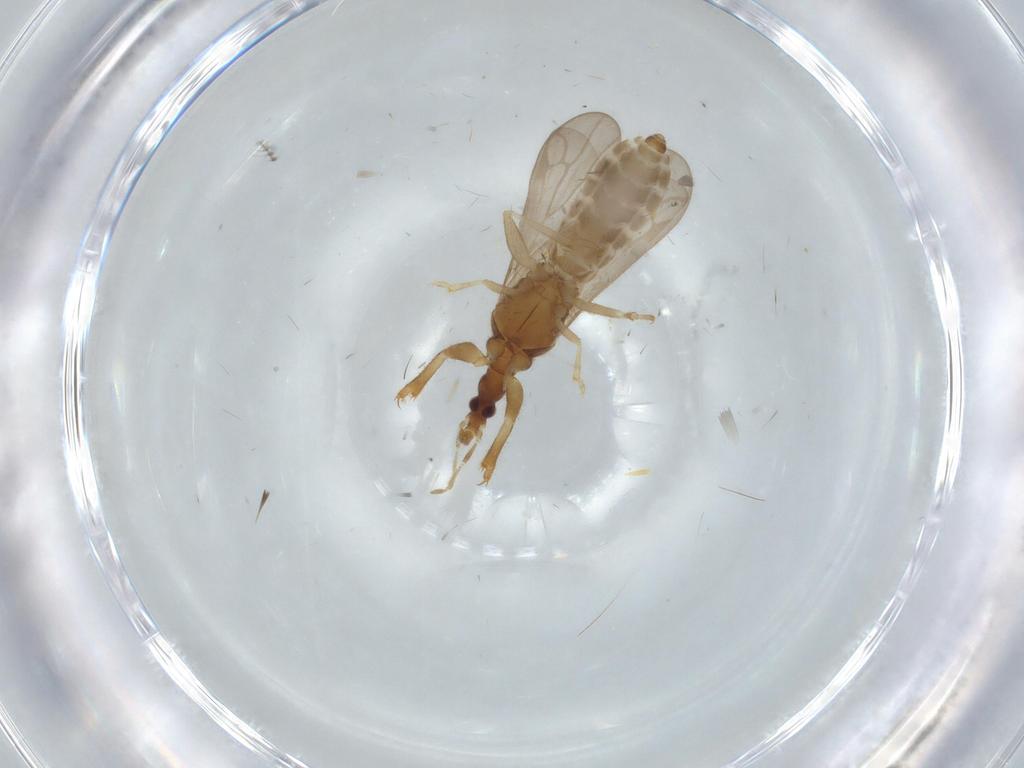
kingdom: Animalia
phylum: Arthropoda
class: Insecta
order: Hemiptera
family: Enicocephalidae
